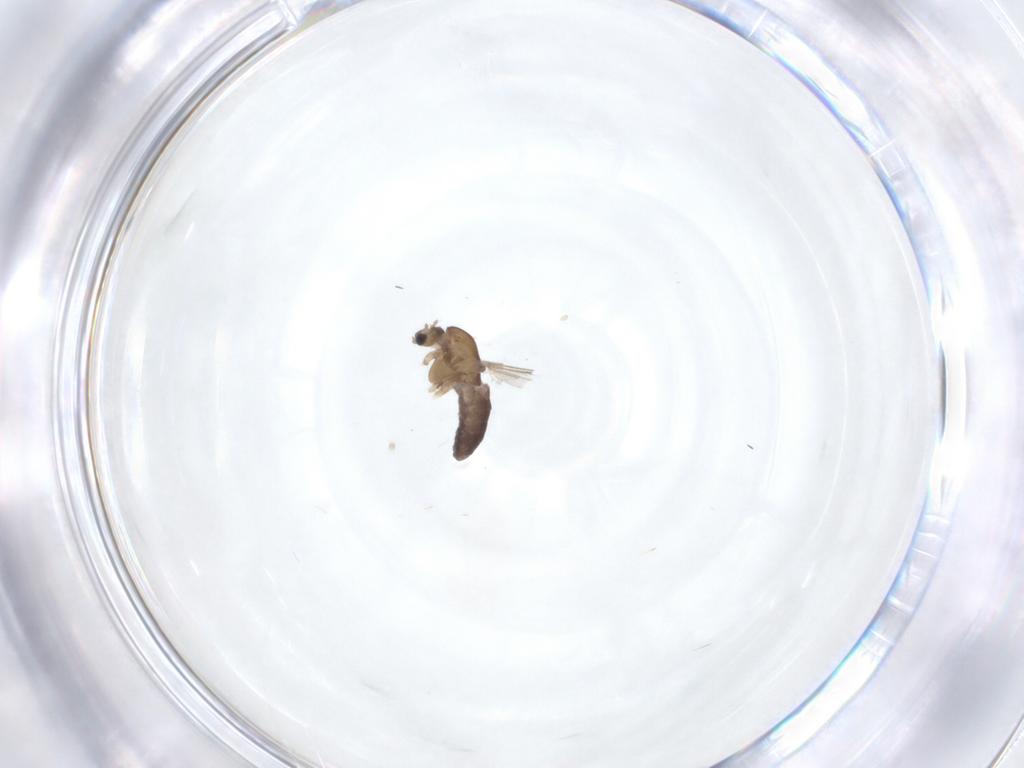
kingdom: Animalia
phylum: Arthropoda
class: Insecta
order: Diptera
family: Chironomidae
